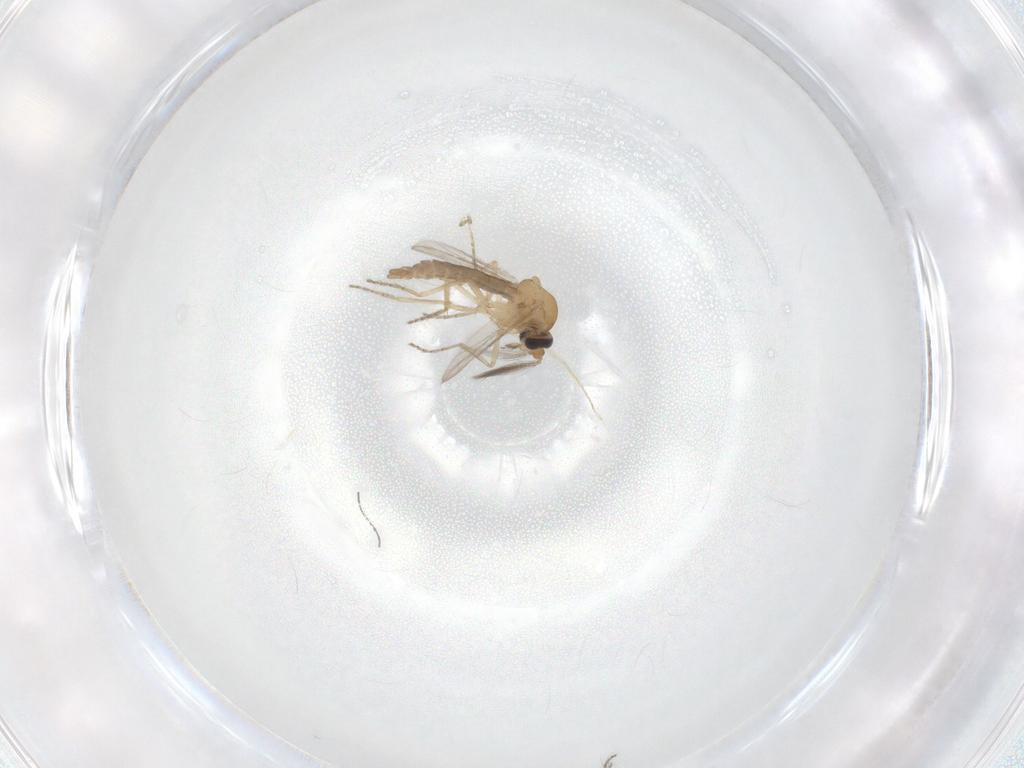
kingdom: Animalia
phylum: Arthropoda
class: Insecta
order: Diptera
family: Ceratopogonidae
